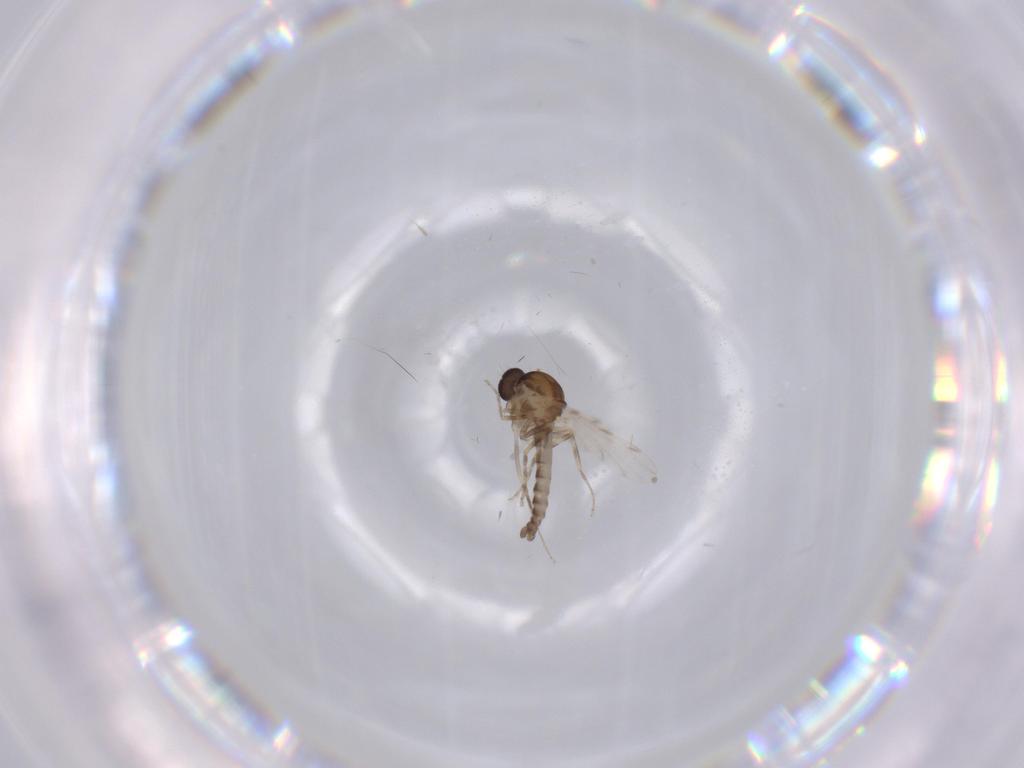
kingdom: Animalia
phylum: Arthropoda
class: Insecta
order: Diptera
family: Ceratopogonidae
